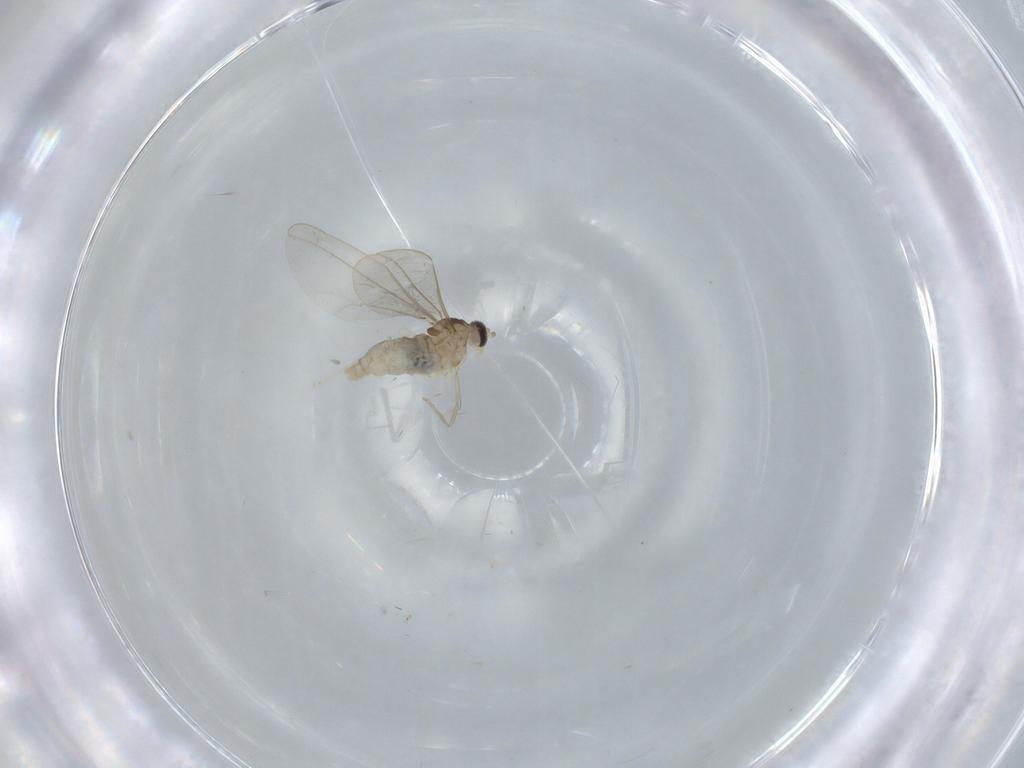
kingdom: Animalia
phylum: Arthropoda
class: Insecta
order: Diptera
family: Cecidomyiidae
